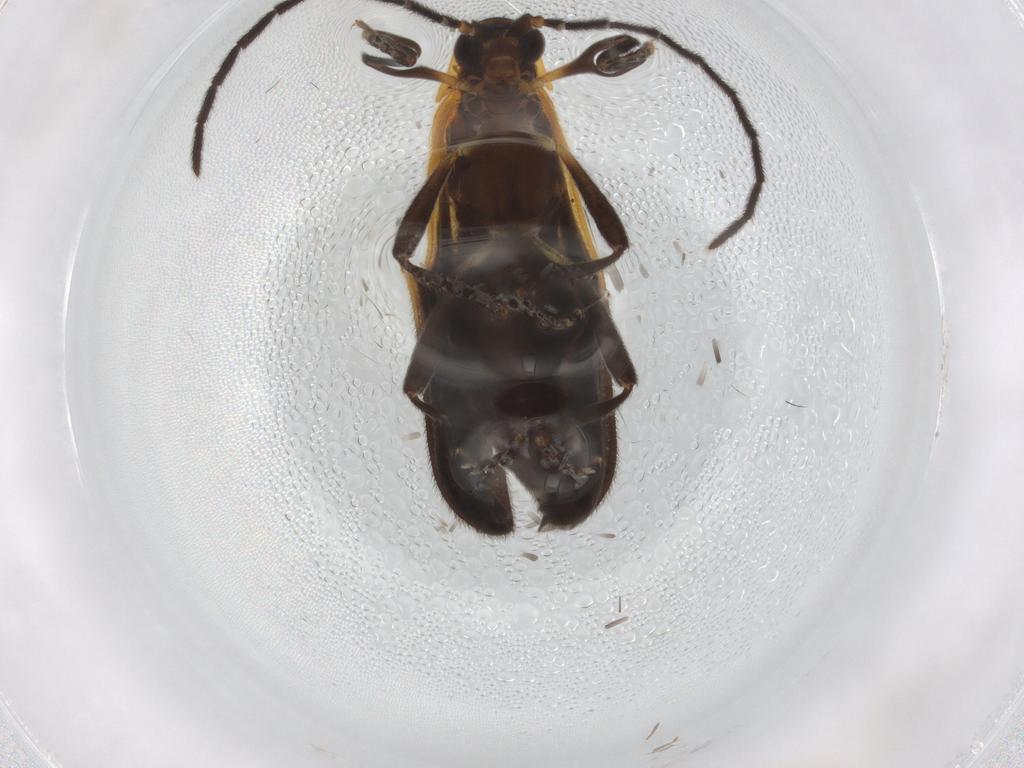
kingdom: Animalia
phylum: Arthropoda
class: Insecta
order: Coleoptera
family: Lycidae
